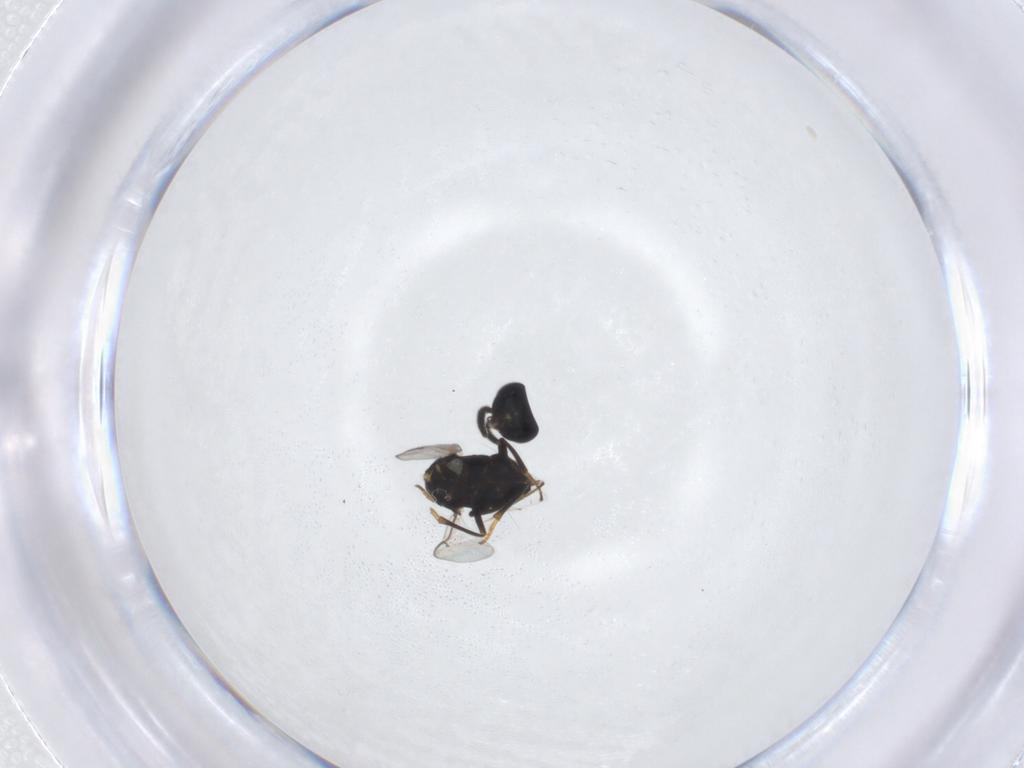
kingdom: Animalia
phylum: Arthropoda
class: Insecta
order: Hymenoptera
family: Encyrtidae
